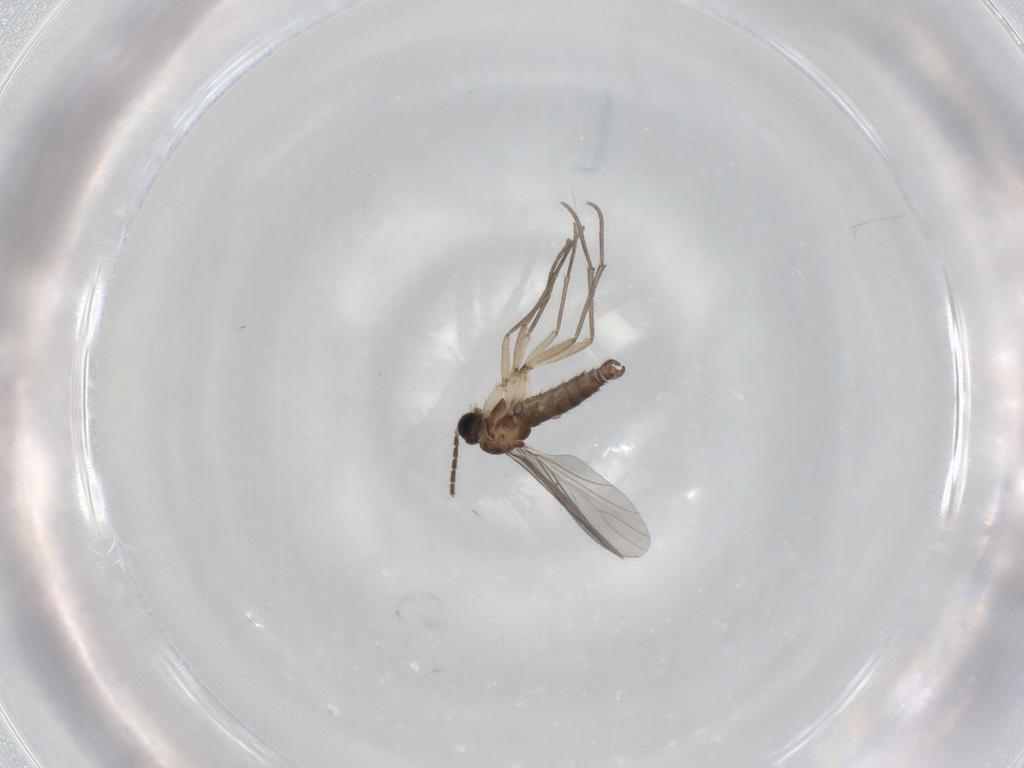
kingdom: Animalia
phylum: Arthropoda
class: Insecta
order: Diptera
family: Sciaridae
